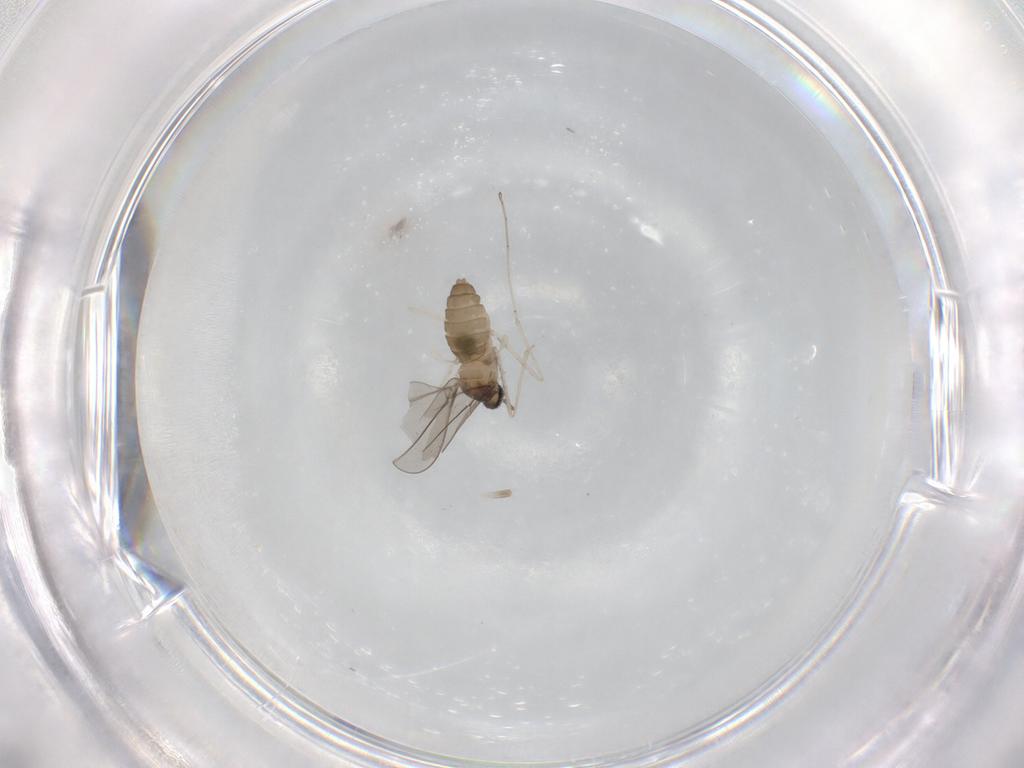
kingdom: Animalia
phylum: Arthropoda
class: Insecta
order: Diptera
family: Cecidomyiidae
